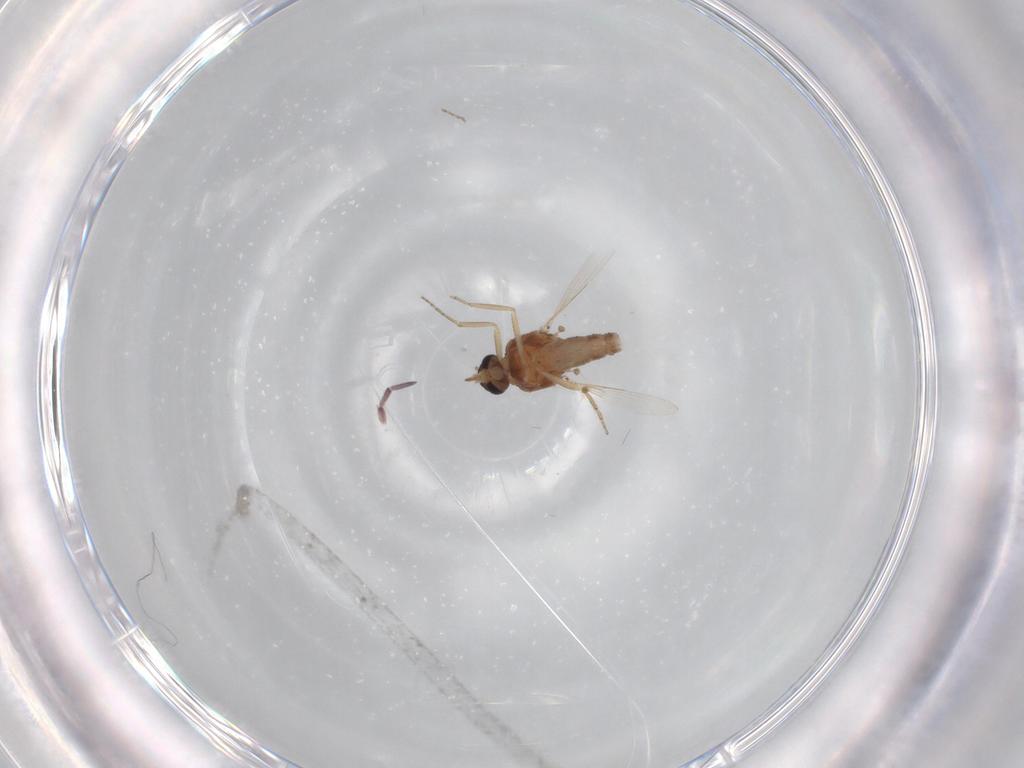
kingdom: Animalia
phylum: Arthropoda
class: Insecta
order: Diptera
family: Ceratopogonidae
